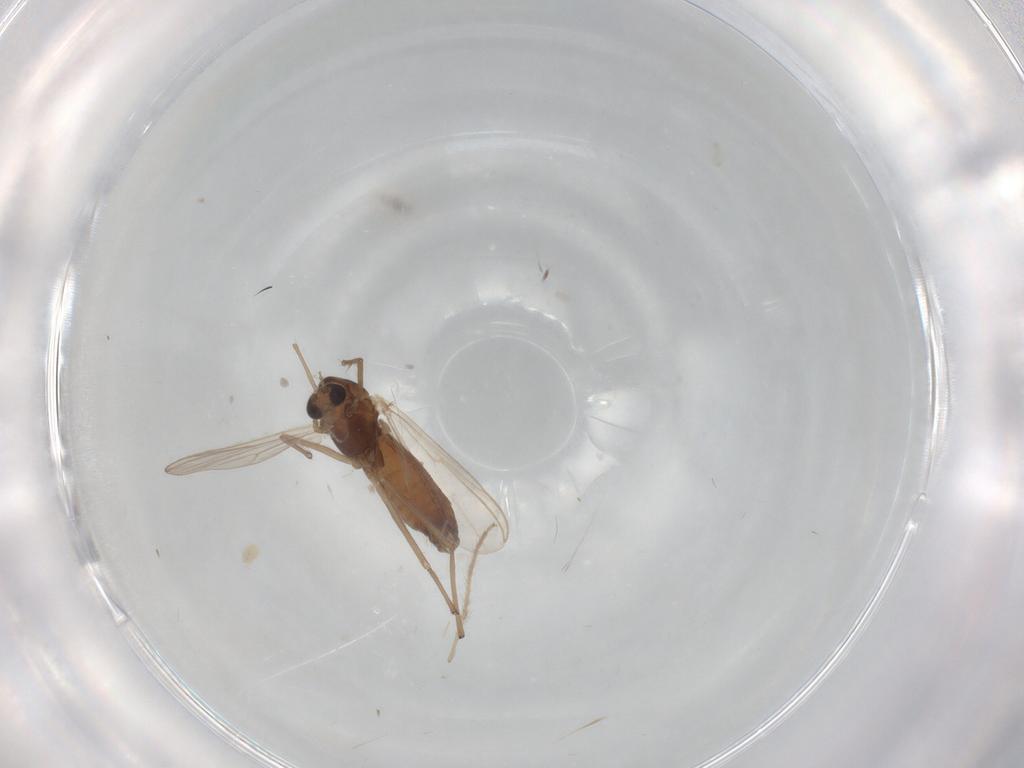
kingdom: Animalia
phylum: Arthropoda
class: Insecta
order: Diptera
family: Chironomidae
